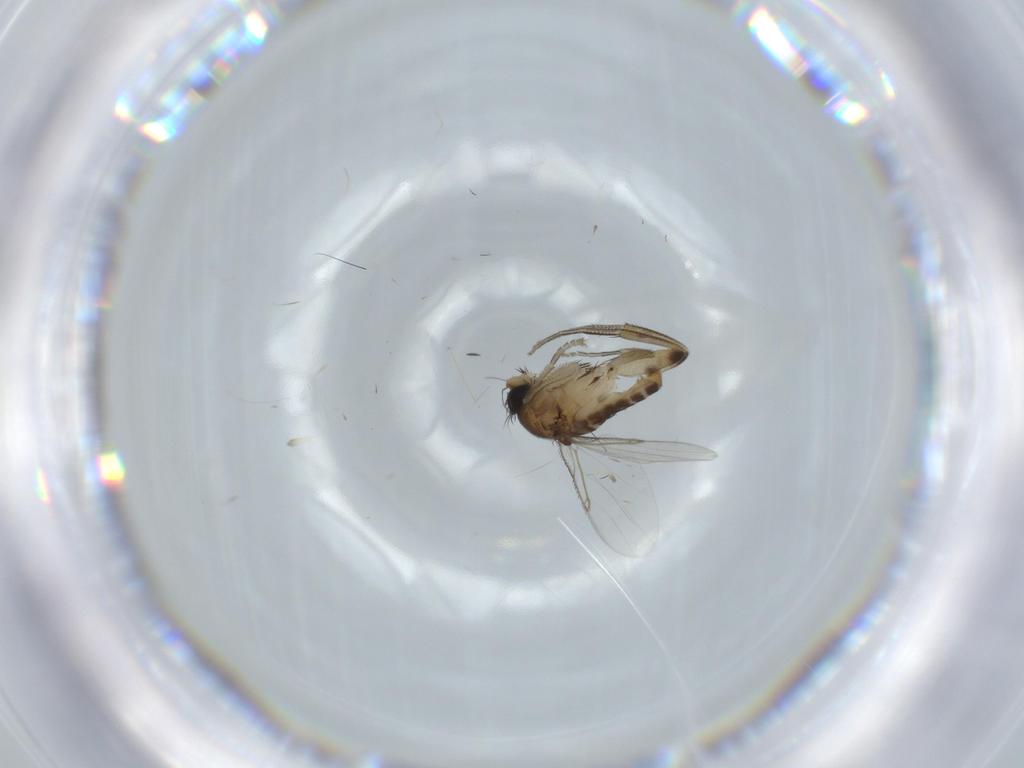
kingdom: Animalia
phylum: Arthropoda
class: Insecta
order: Diptera
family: Phoridae
